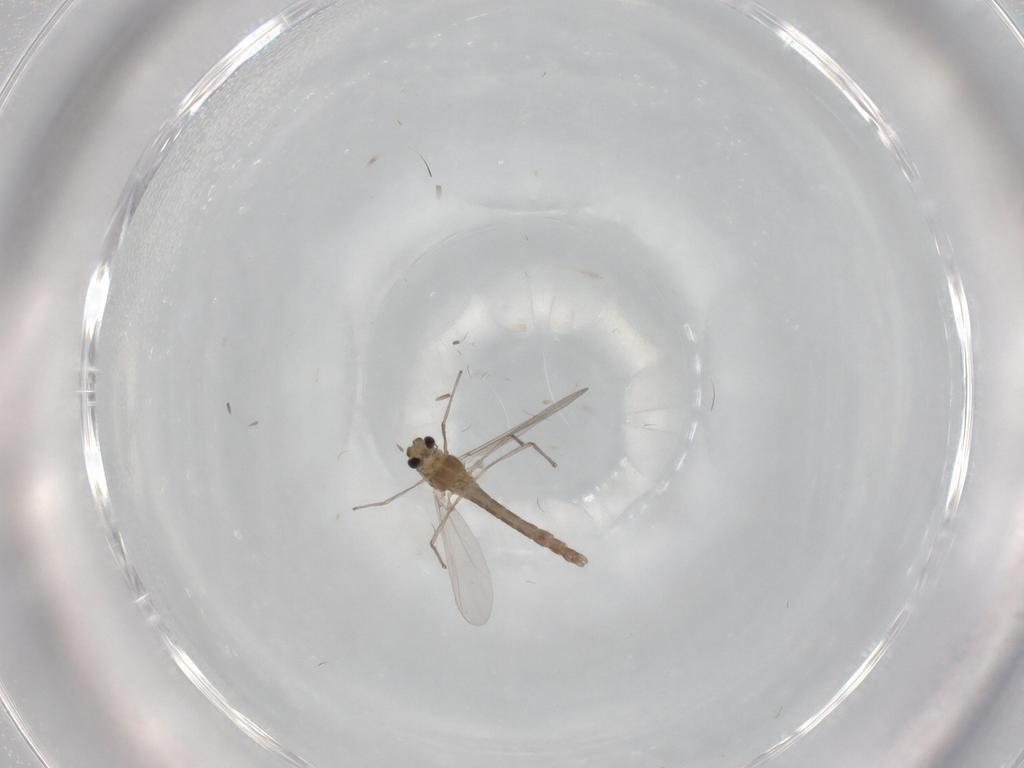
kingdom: Animalia
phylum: Arthropoda
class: Insecta
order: Diptera
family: Chironomidae
